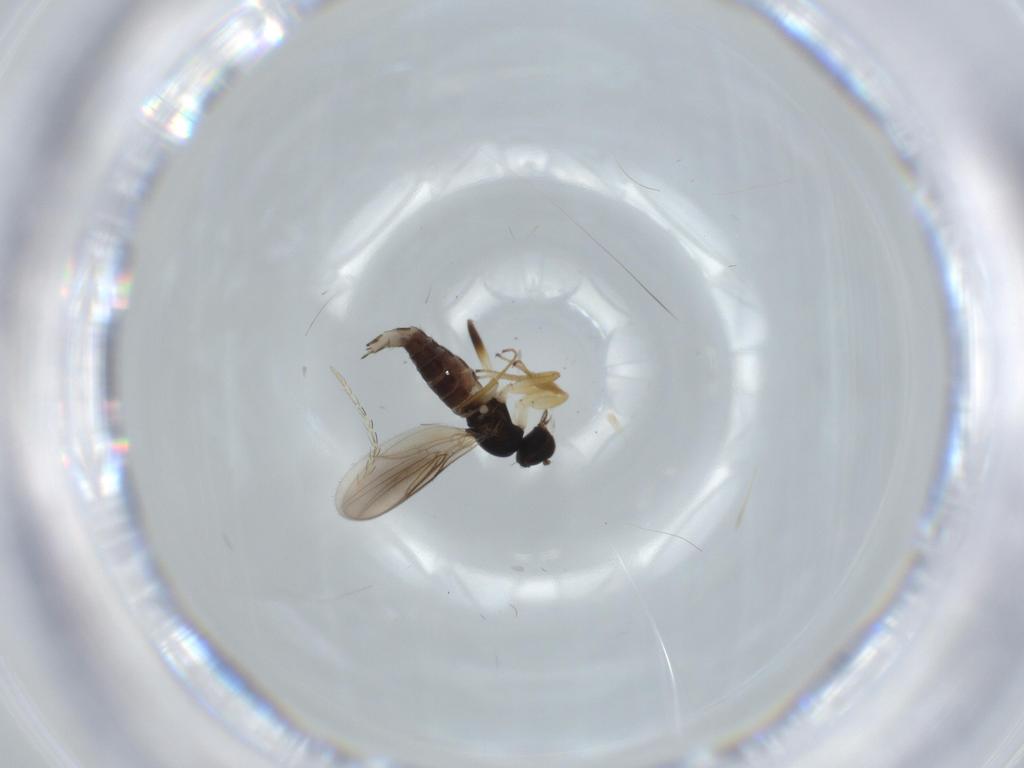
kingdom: Animalia
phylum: Arthropoda
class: Insecta
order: Diptera
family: Hybotidae
